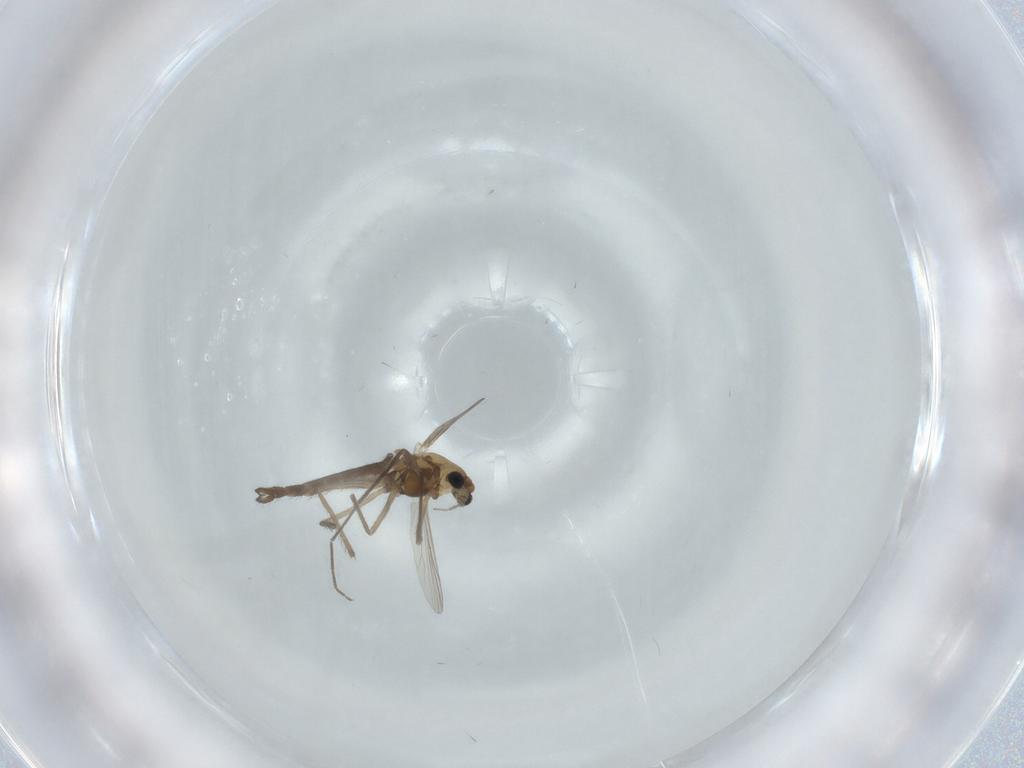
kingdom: Animalia
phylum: Arthropoda
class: Insecta
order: Diptera
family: Chironomidae
